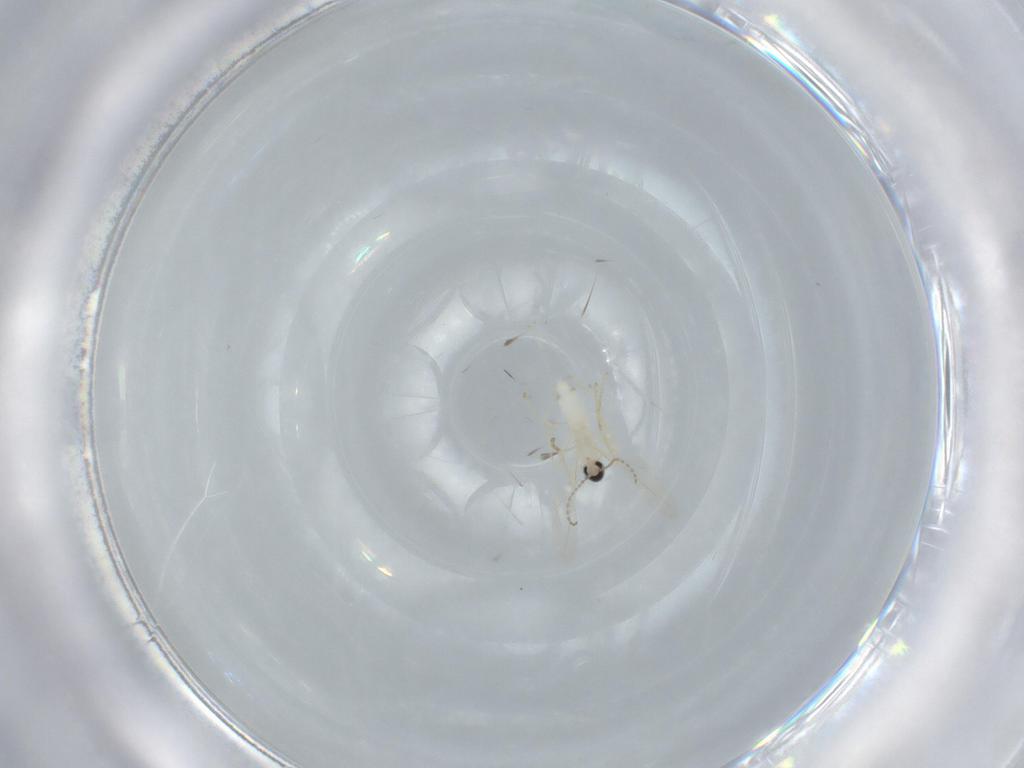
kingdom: Animalia
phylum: Arthropoda
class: Insecta
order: Diptera
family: Cecidomyiidae
